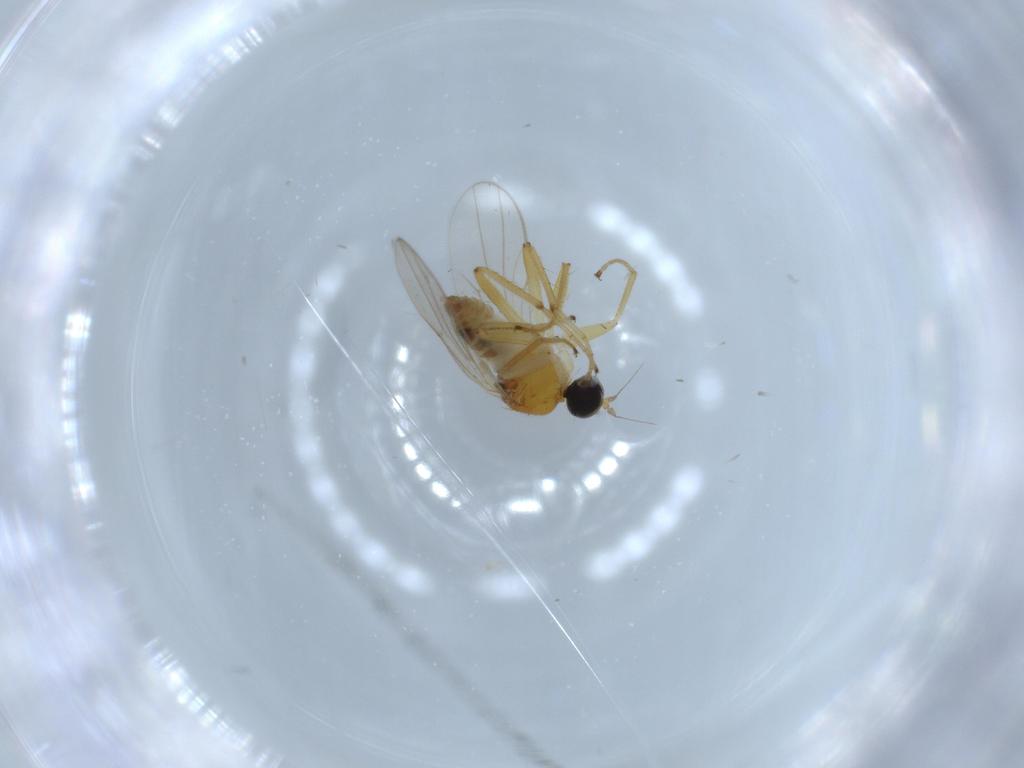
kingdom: Animalia
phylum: Arthropoda
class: Insecta
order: Diptera
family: Hybotidae
